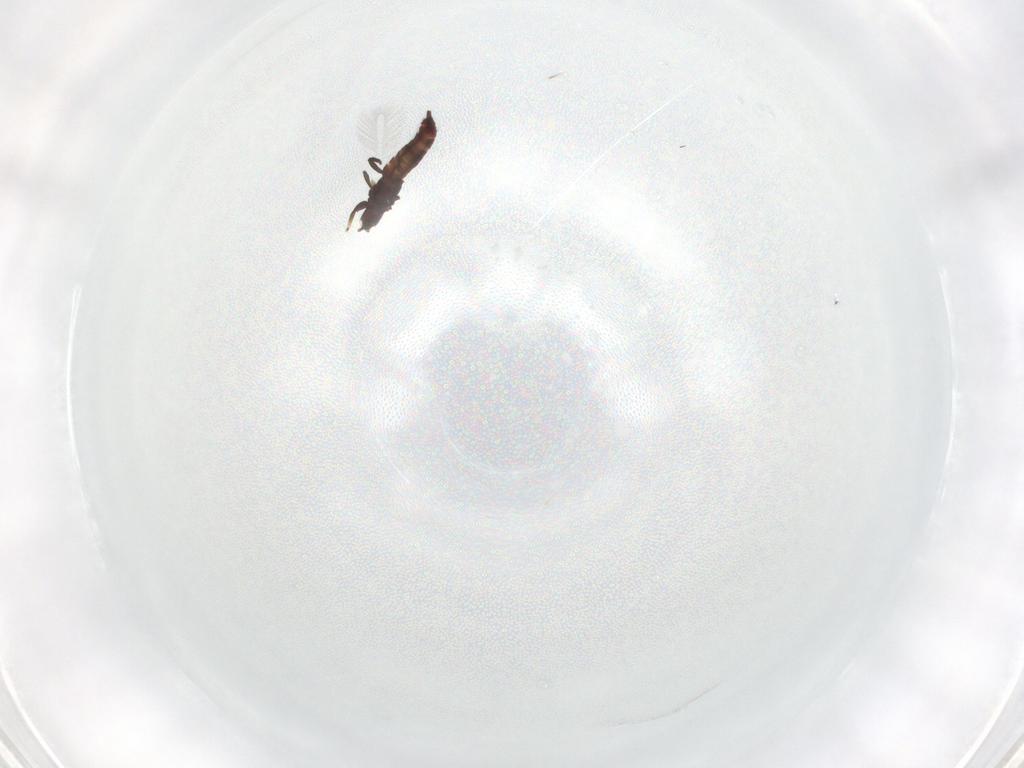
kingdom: Animalia
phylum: Arthropoda
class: Insecta
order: Thysanoptera
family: Phlaeothripidae
